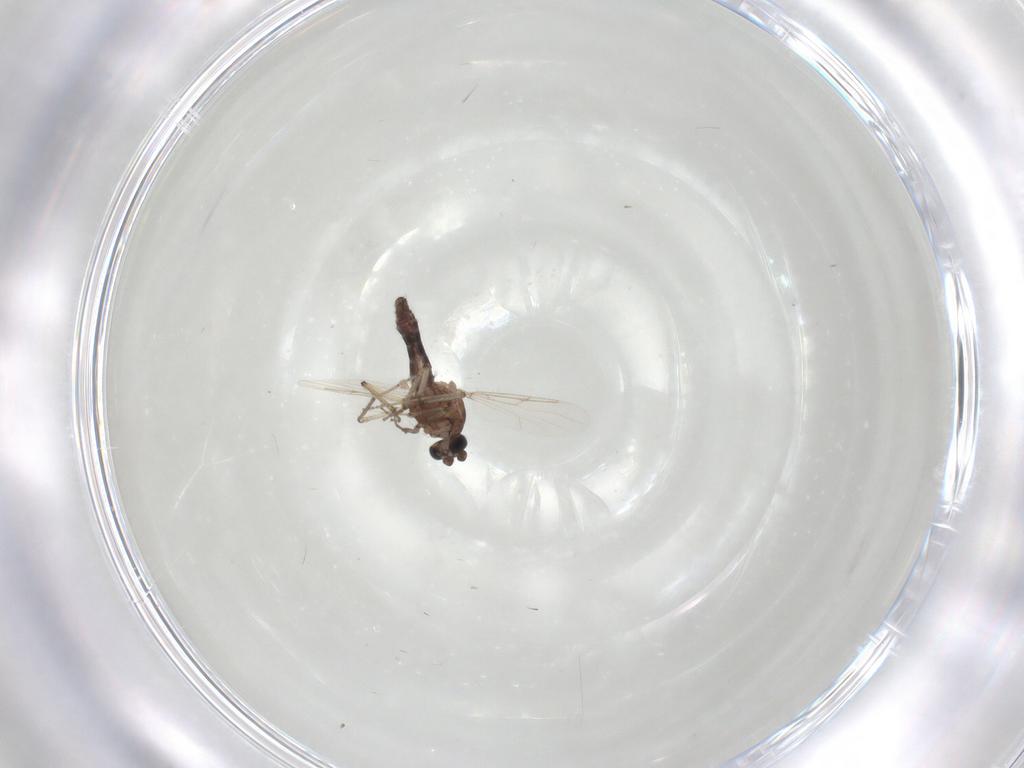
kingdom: Animalia
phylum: Arthropoda
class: Insecta
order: Diptera
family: Ceratopogonidae
